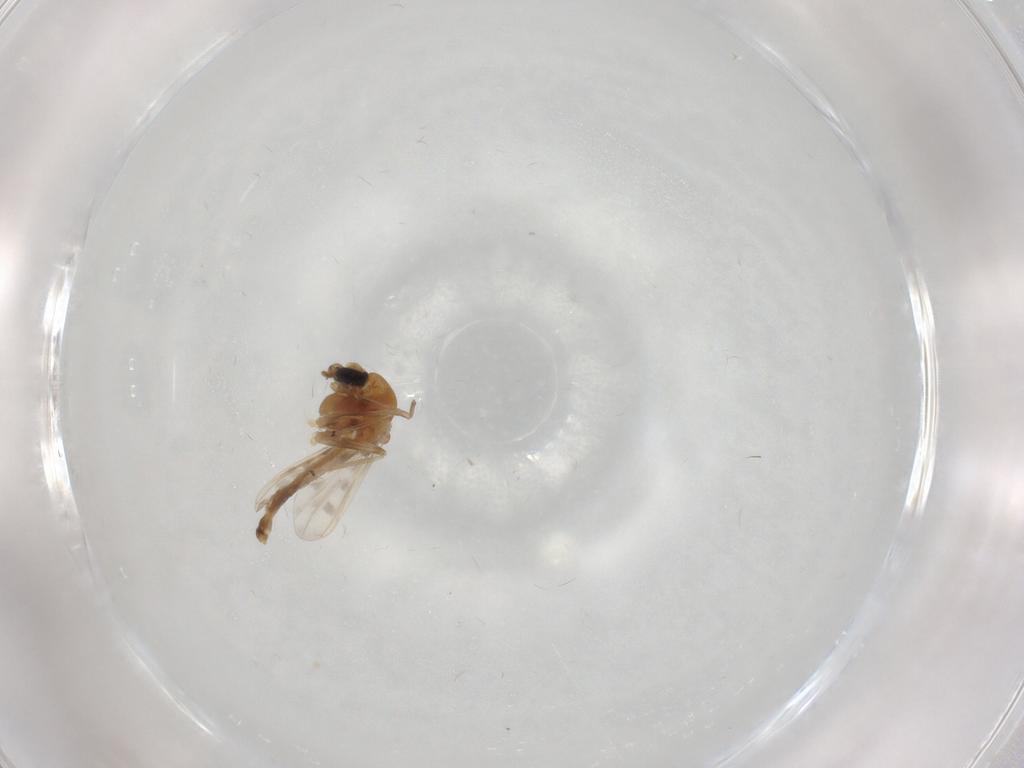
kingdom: Animalia
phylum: Arthropoda
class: Insecta
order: Diptera
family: Chironomidae
